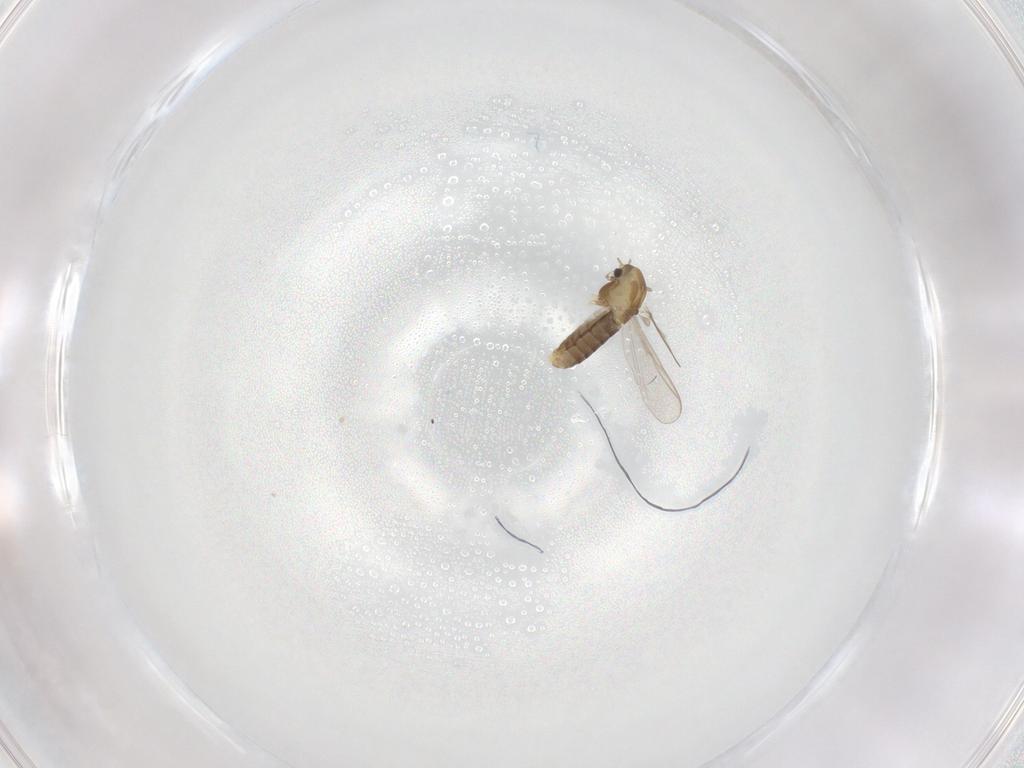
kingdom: Animalia
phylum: Arthropoda
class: Insecta
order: Diptera
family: Chironomidae
